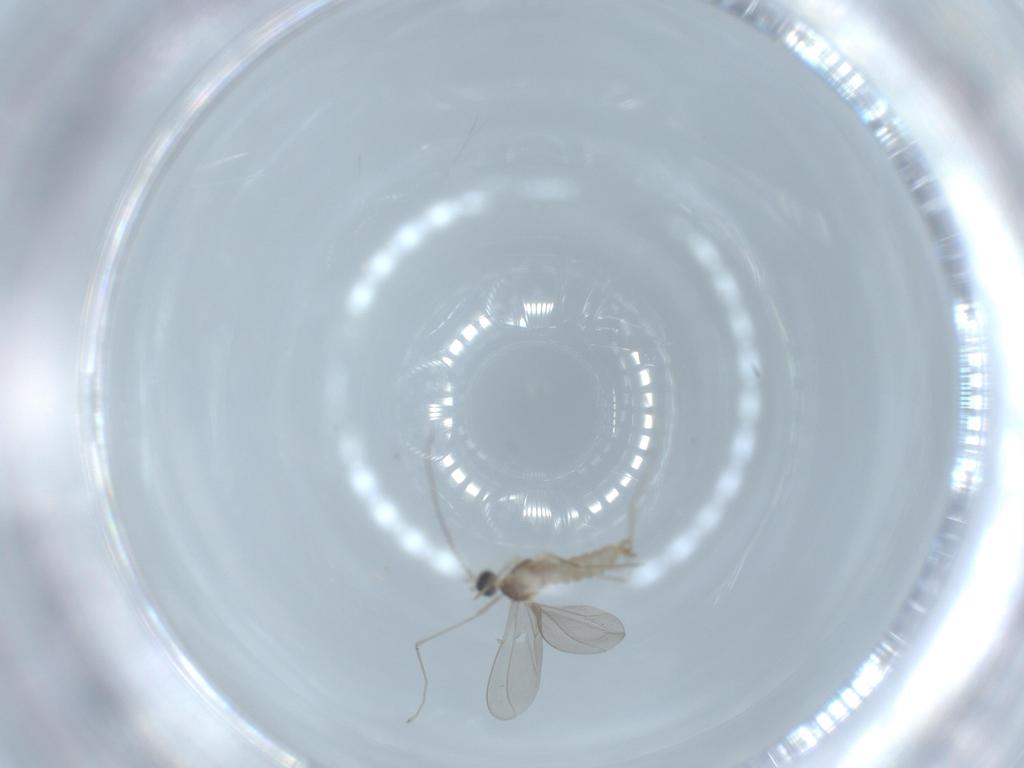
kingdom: Animalia
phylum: Arthropoda
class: Insecta
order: Diptera
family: Cecidomyiidae
